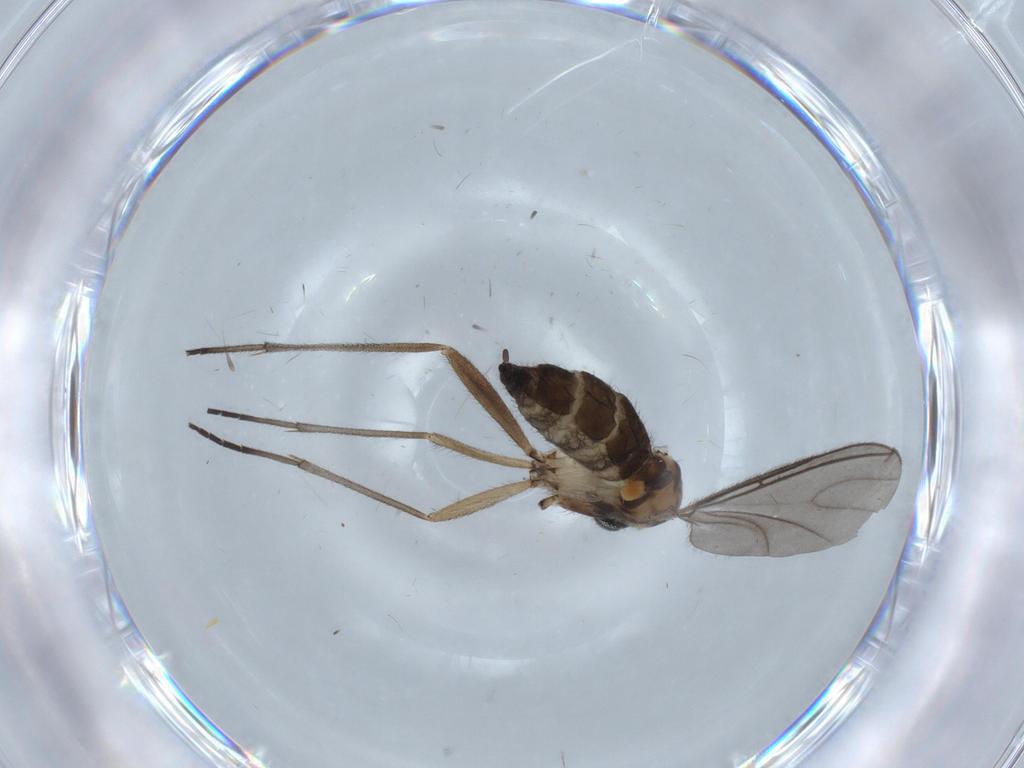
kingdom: Animalia
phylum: Arthropoda
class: Insecta
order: Diptera
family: Sciaridae
